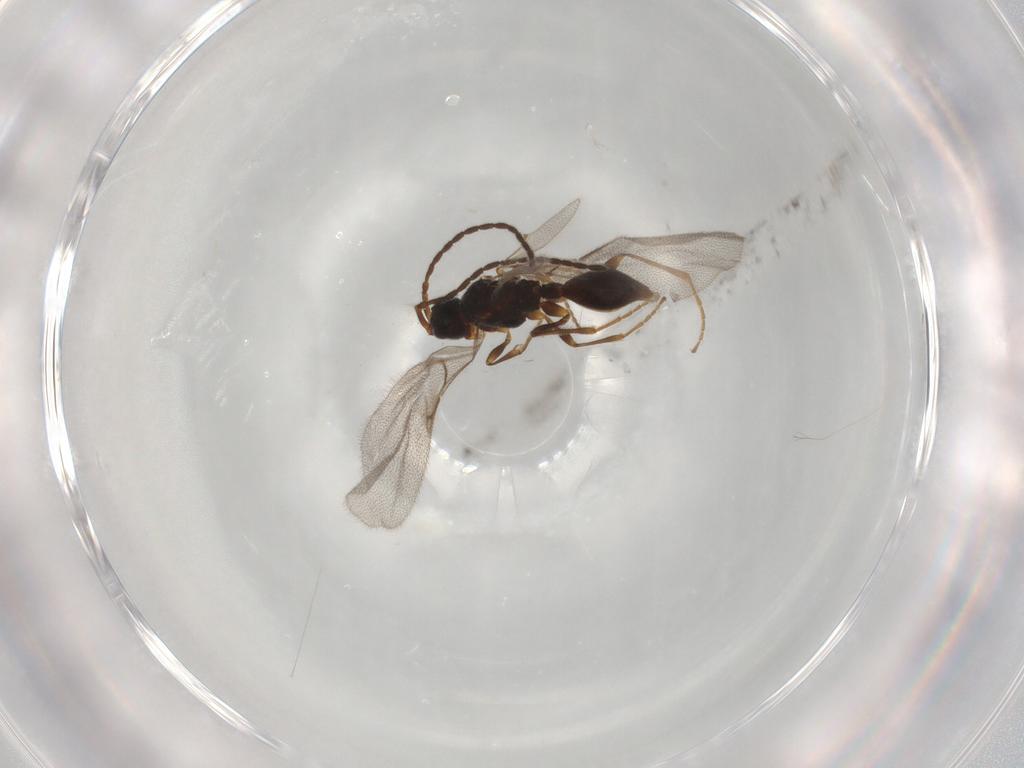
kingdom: Animalia
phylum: Arthropoda
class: Insecta
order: Hymenoptera
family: Diapriidae
